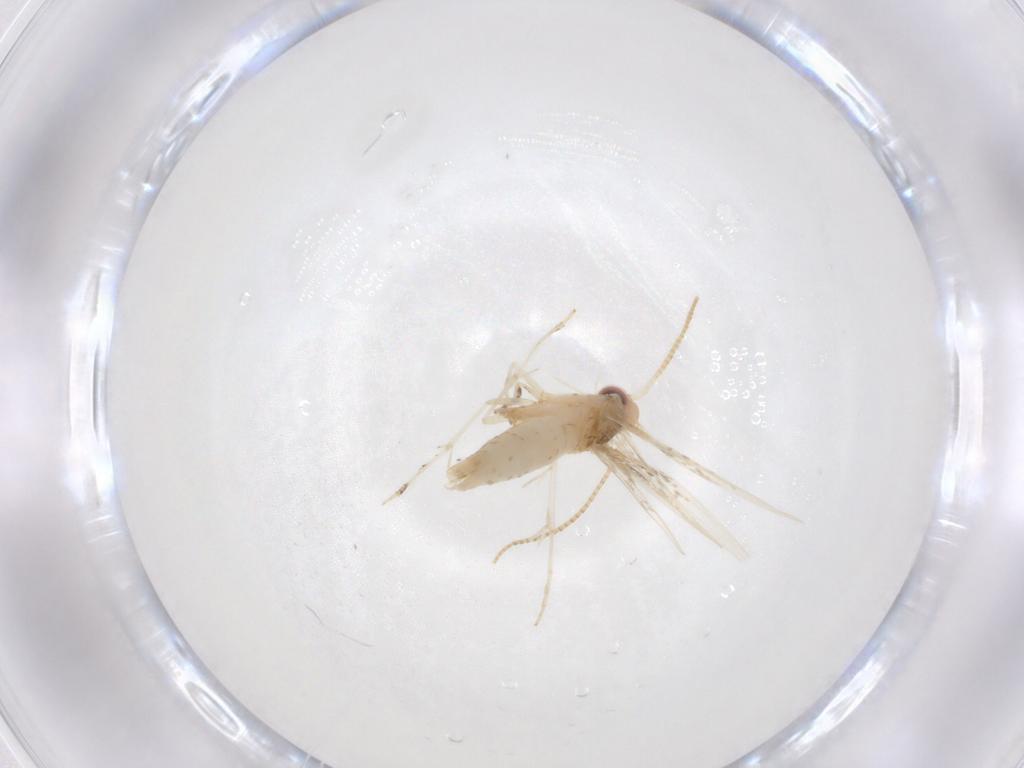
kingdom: Animalia
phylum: Arthropoda
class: Insecta
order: Lepidoptera
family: Gracillariidae
